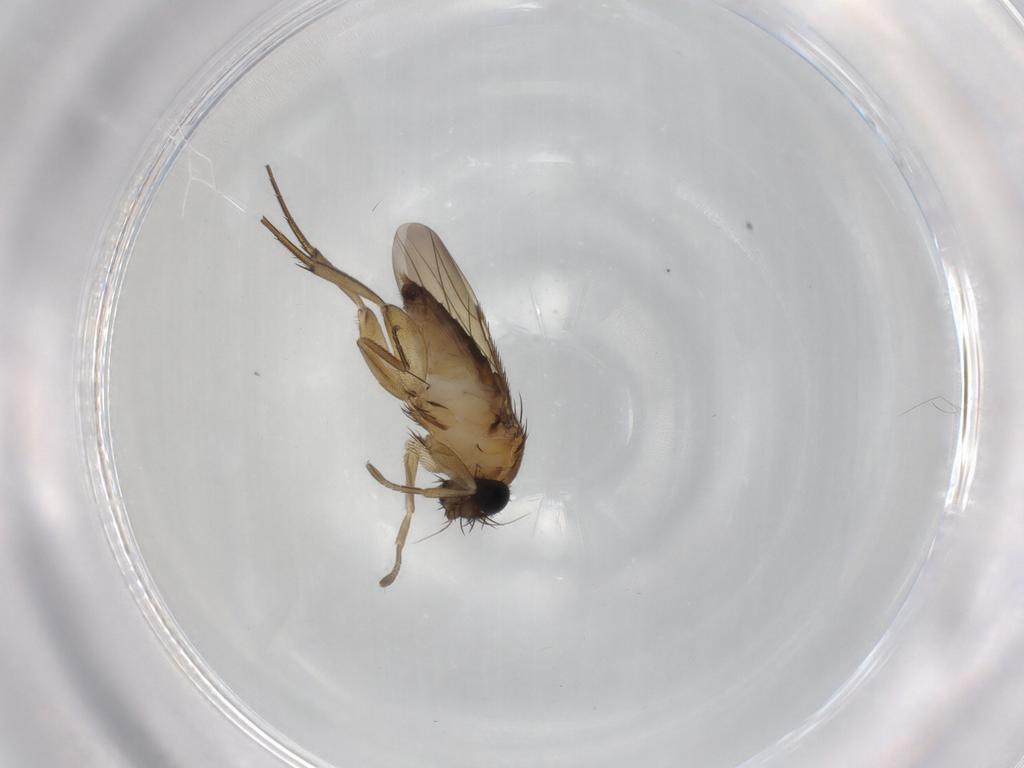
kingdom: Animalia
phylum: Arthropoda
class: Insecta
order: Diptera
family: Phoridae
